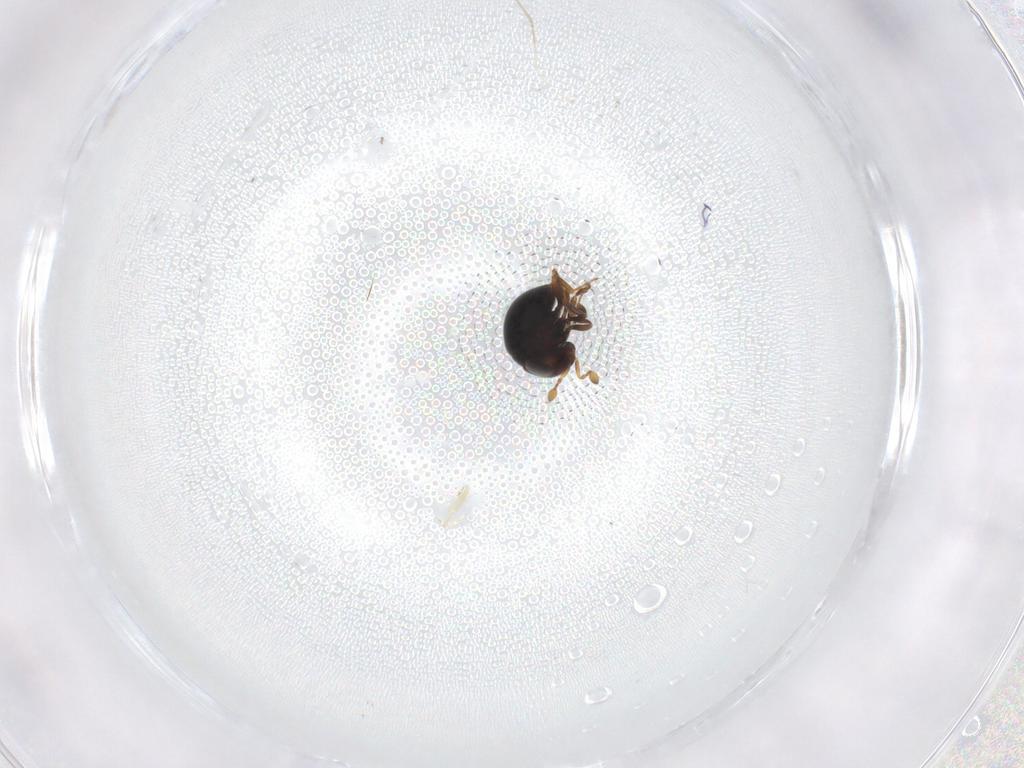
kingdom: Animalia
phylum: Arthropoda
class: Insecta
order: Hymenoptera
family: Scelionidae
